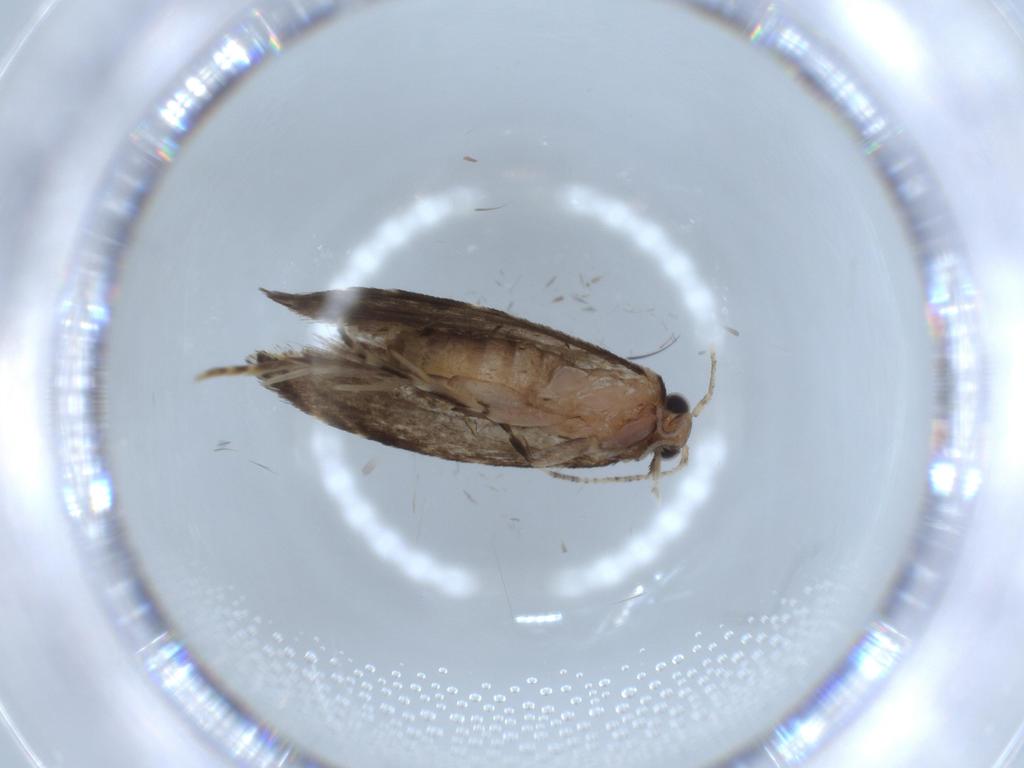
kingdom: Animalia
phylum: Arthropoda
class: Insecta
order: Lepidoptera
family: Tineidae
